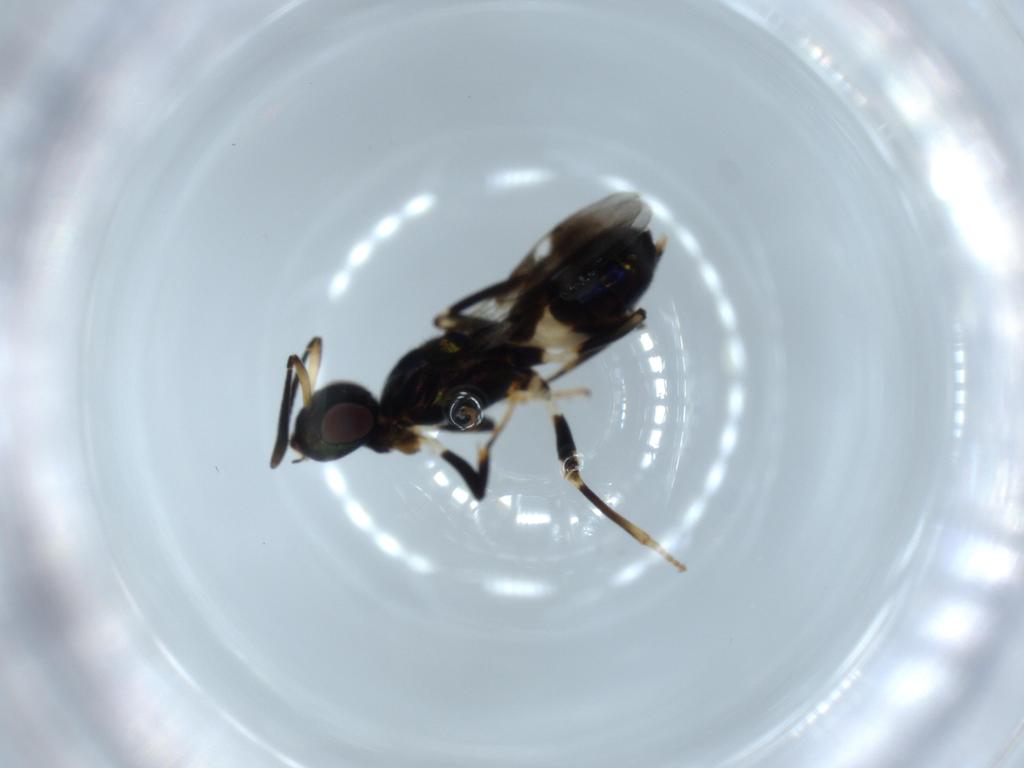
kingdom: Animalia
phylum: Arthropoda
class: Insecta
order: Hymenoptera
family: Eupelmidae
